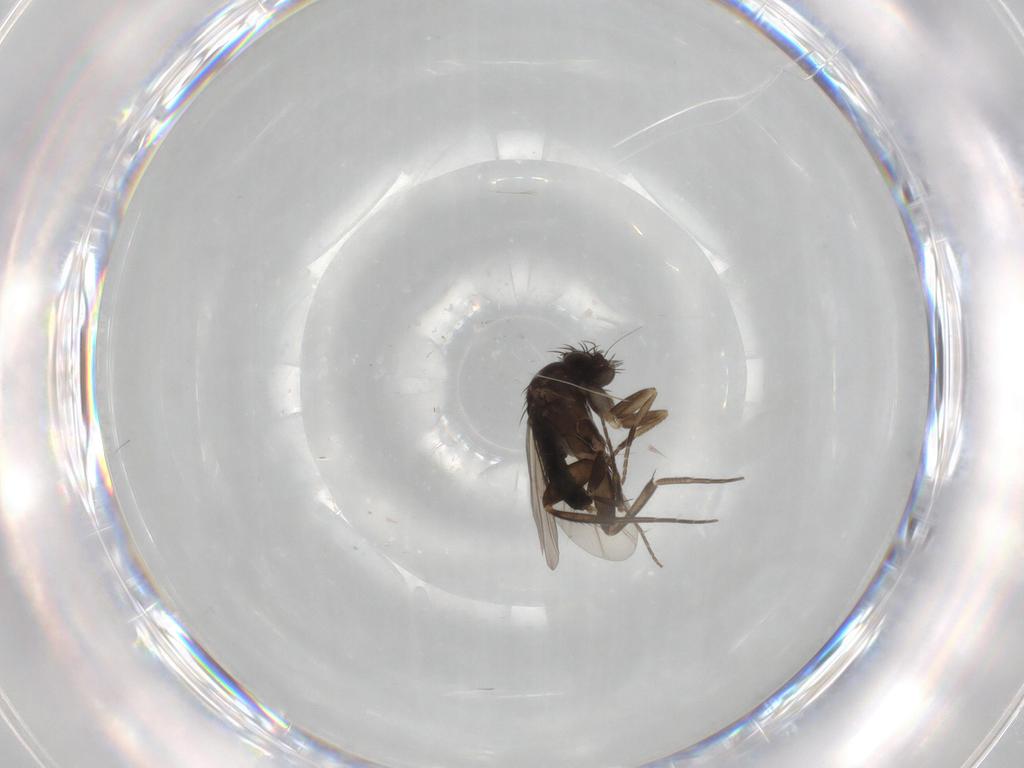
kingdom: Animalia
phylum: Arthropoda
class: Insecta
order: Diptera
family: Phoridae
